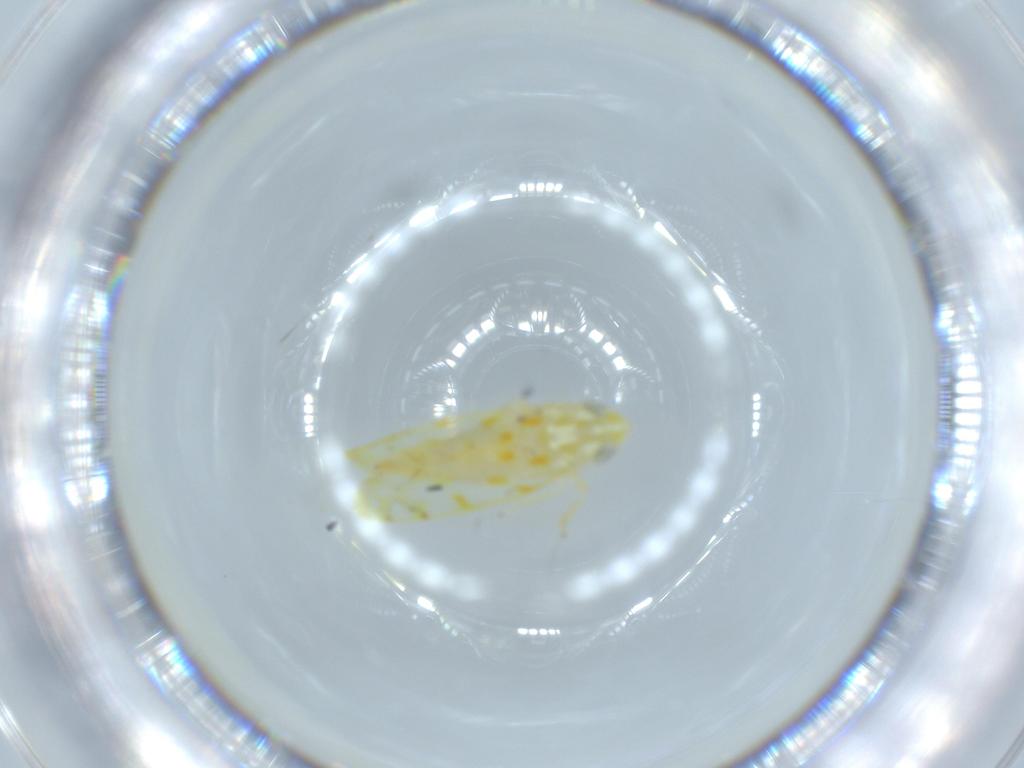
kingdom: Animalia
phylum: Arthropoda
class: Insecta
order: Hemiptera
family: Cicadellidae
